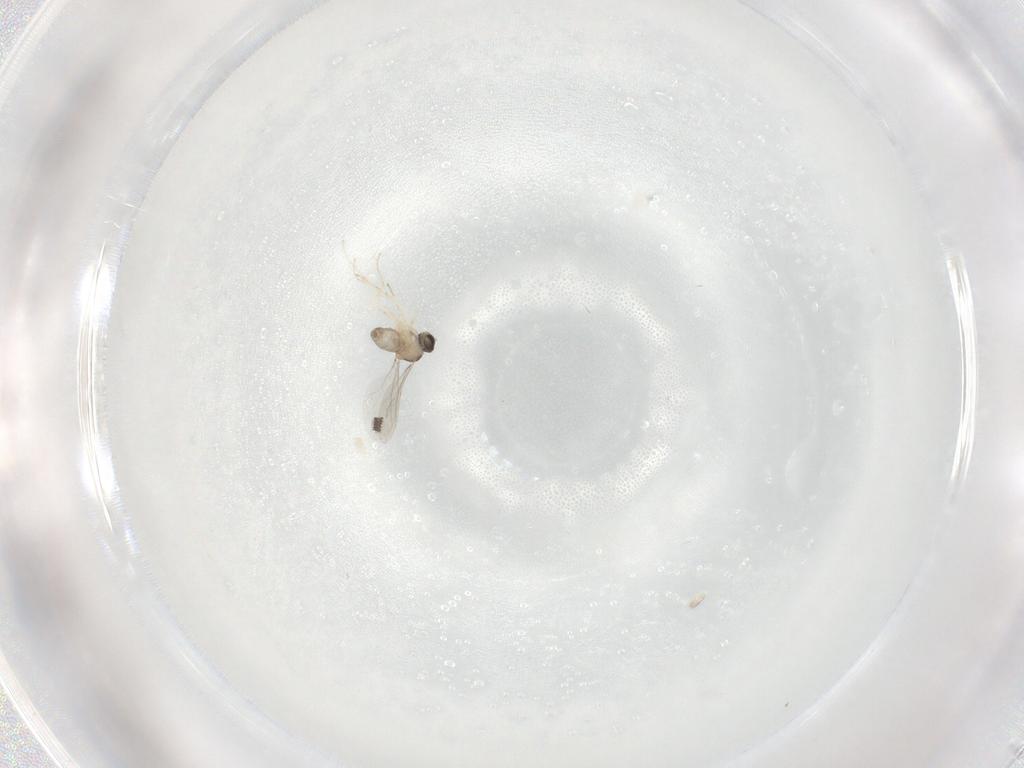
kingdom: Animalia
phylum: Arthropoda
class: Insecta
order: Diptera
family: Cecidomyiidae
